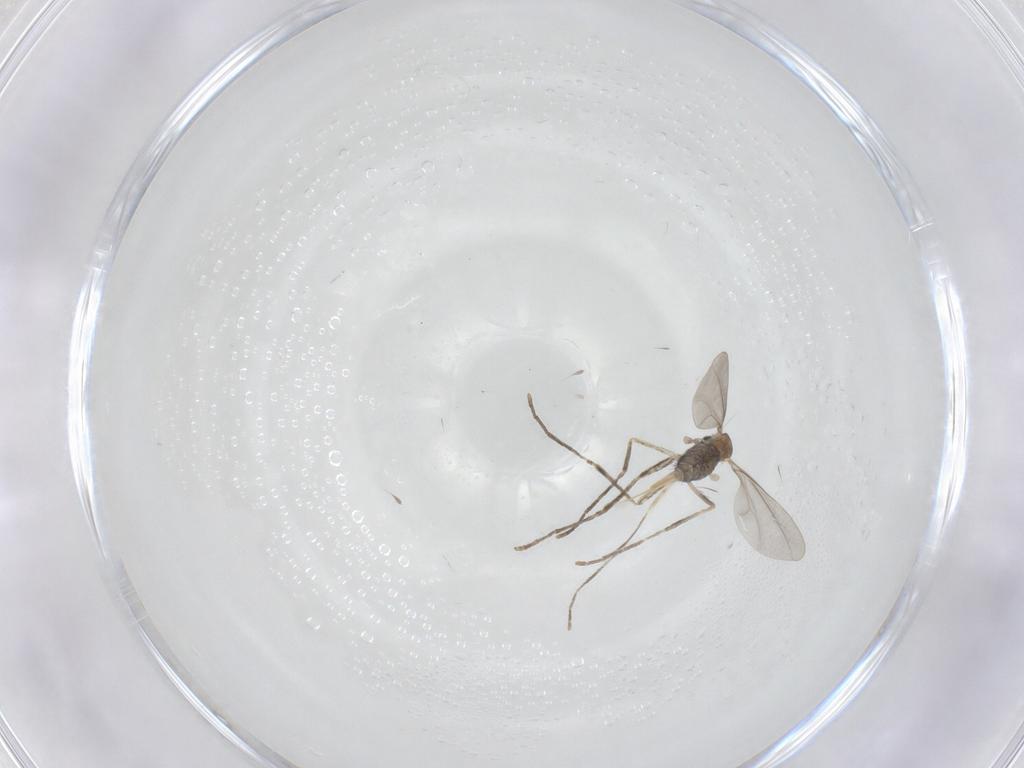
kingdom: Animalia
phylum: Arthropoda
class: Insecta
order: Diptera
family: Cecidomyiidae
